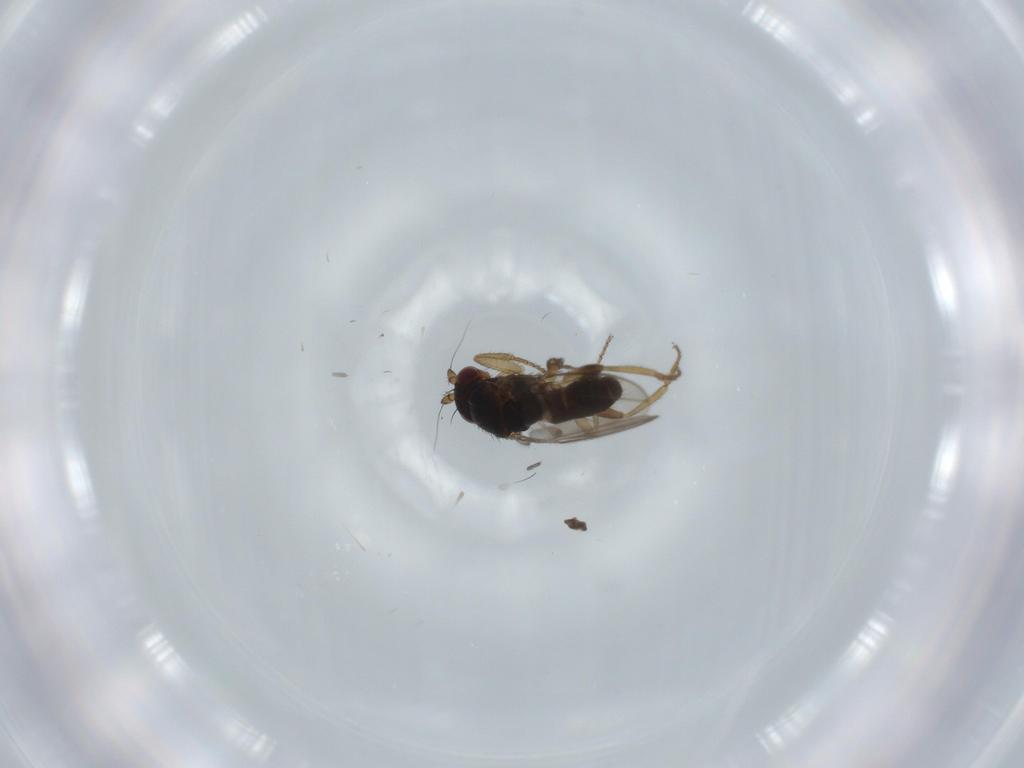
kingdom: Animalia
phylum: Arthropoda
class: Insecta
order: Diptera
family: Sphaeroceridae
